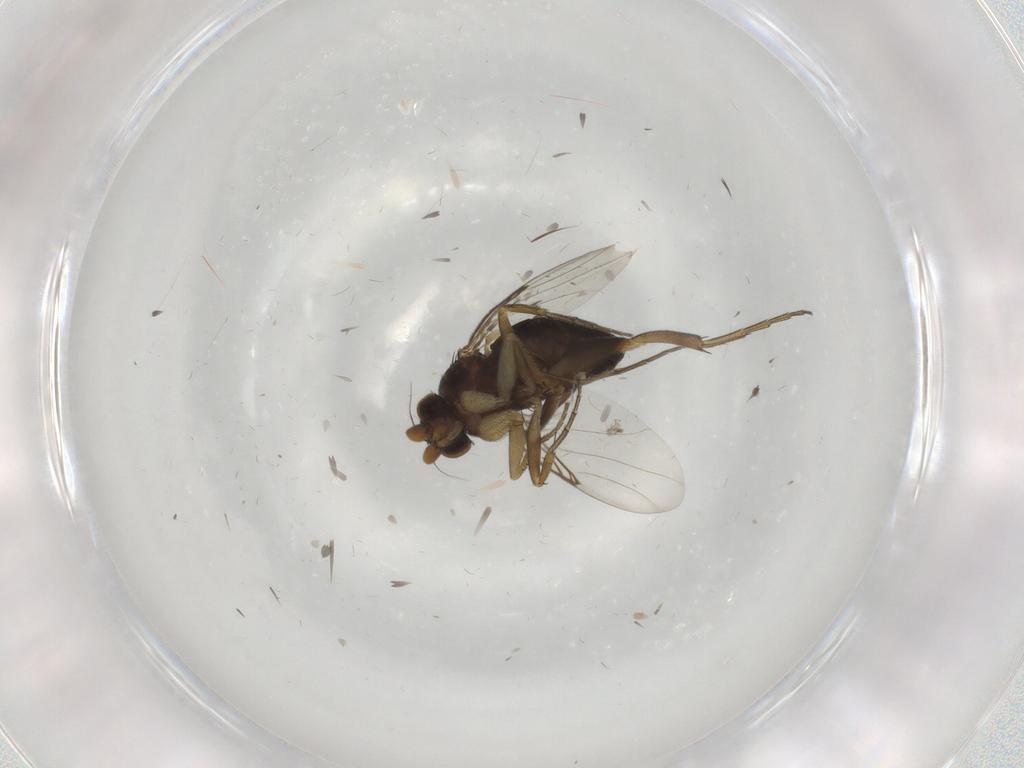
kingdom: Animalia
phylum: Arthropoda
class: Insecta
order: Diptera
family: Phoridae
